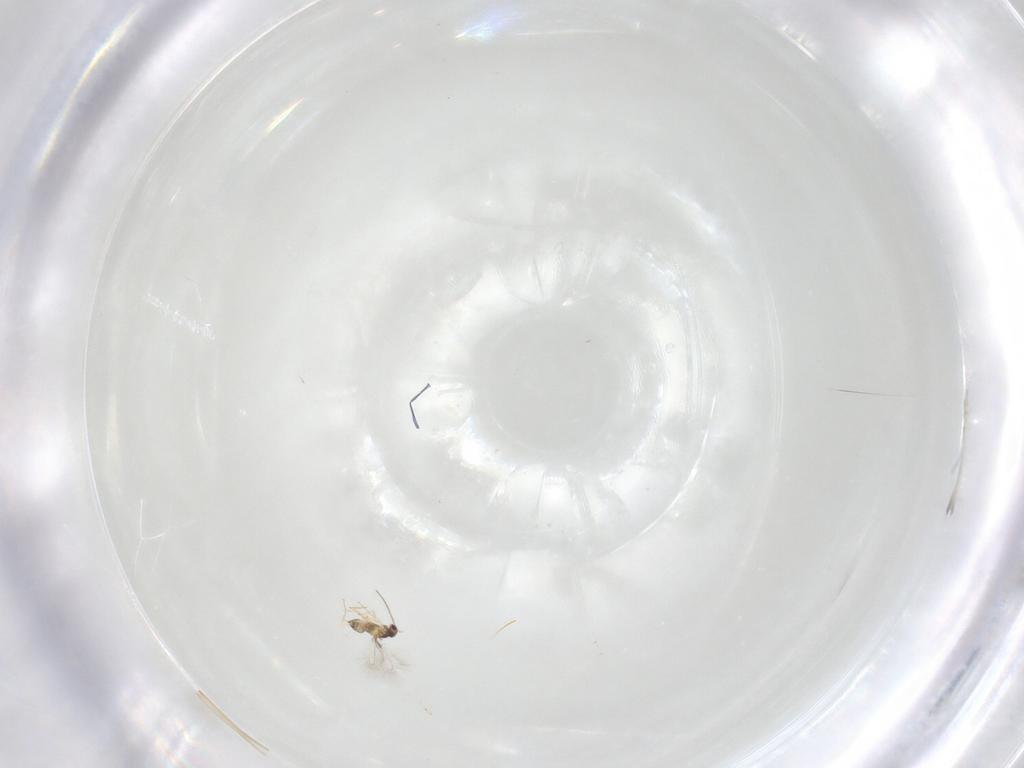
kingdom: Animalia
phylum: Arthropoda
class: Insecta
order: Diptera
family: Cecidomyiidae
